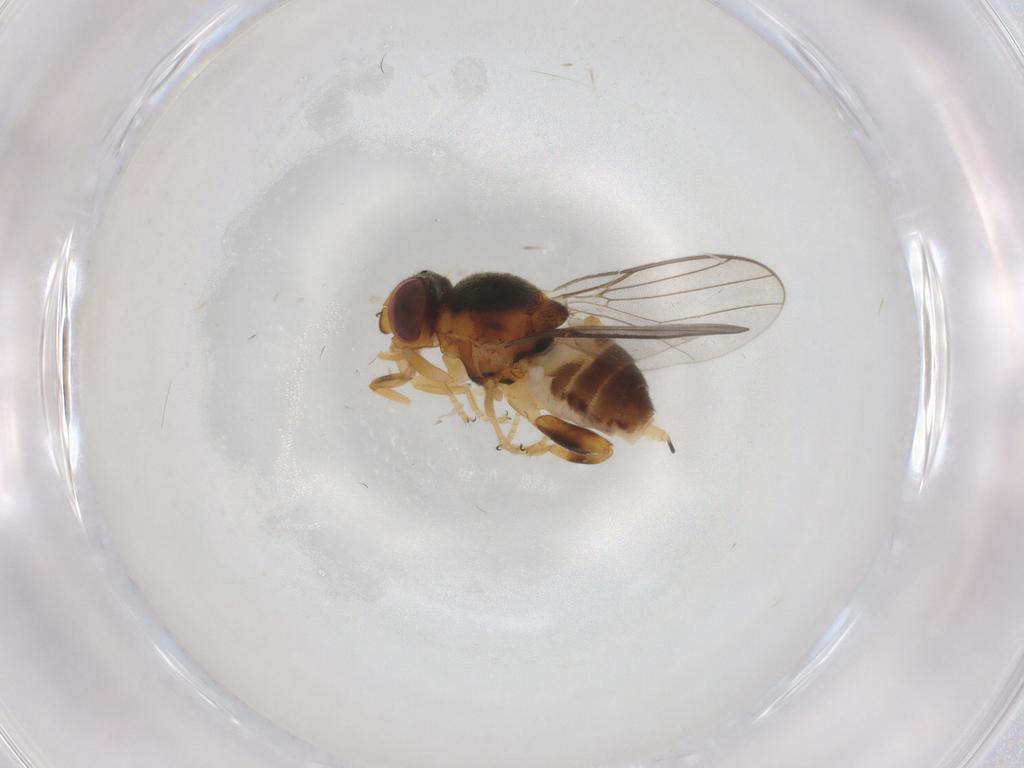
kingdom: Animalia
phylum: Arthropoda
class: Insecta
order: Diptera
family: Chloropidae
